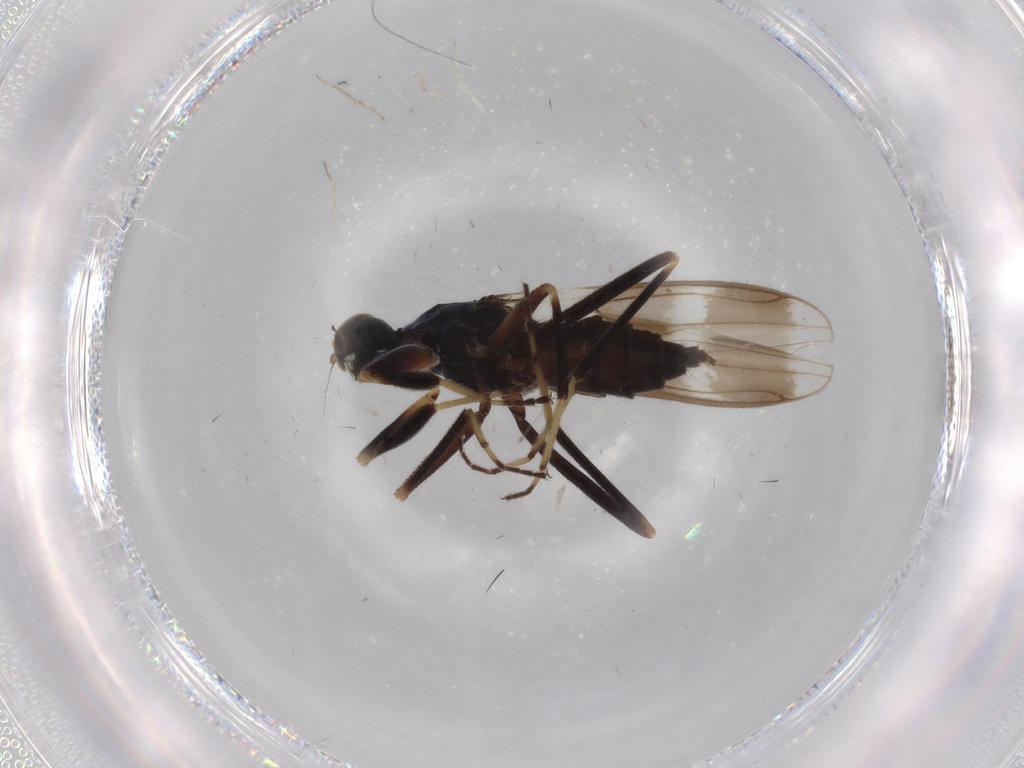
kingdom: Animalia
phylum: Arthropoda
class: Insecta
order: Diptera
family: Hybotidae
